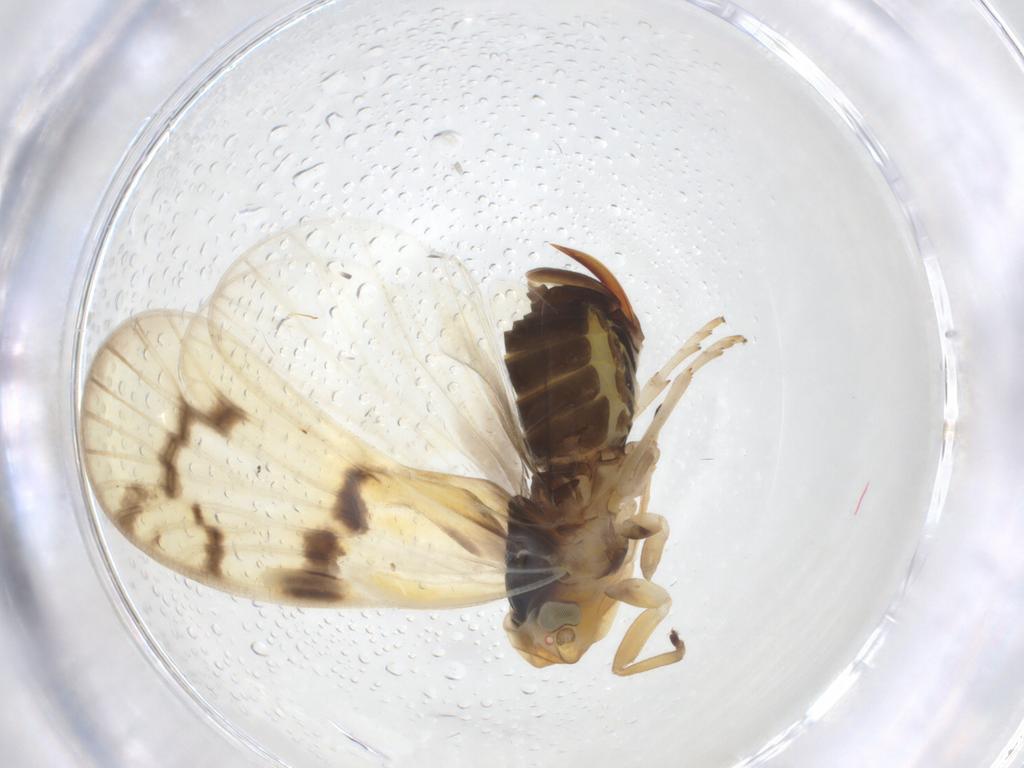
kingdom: Animalia
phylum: Arthropoda
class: Insecta
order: Hemiptera
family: Cixiidae
